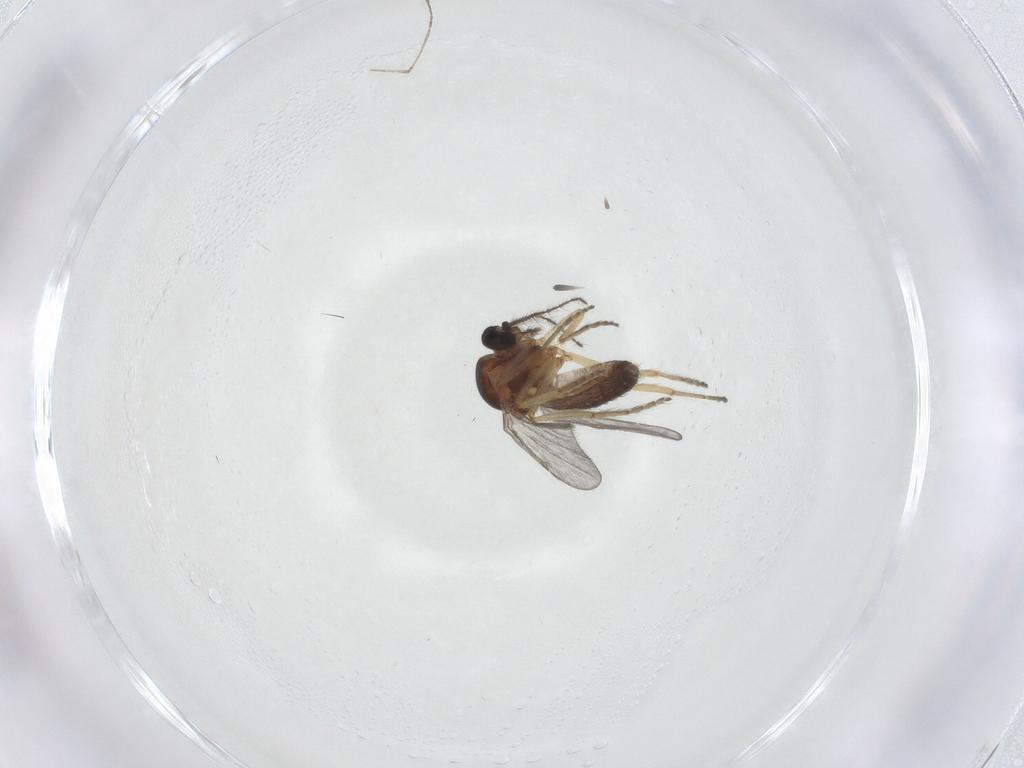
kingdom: Animalia
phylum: Arthropoda
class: Insecta
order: Diptera
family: Ceratopogonidae
